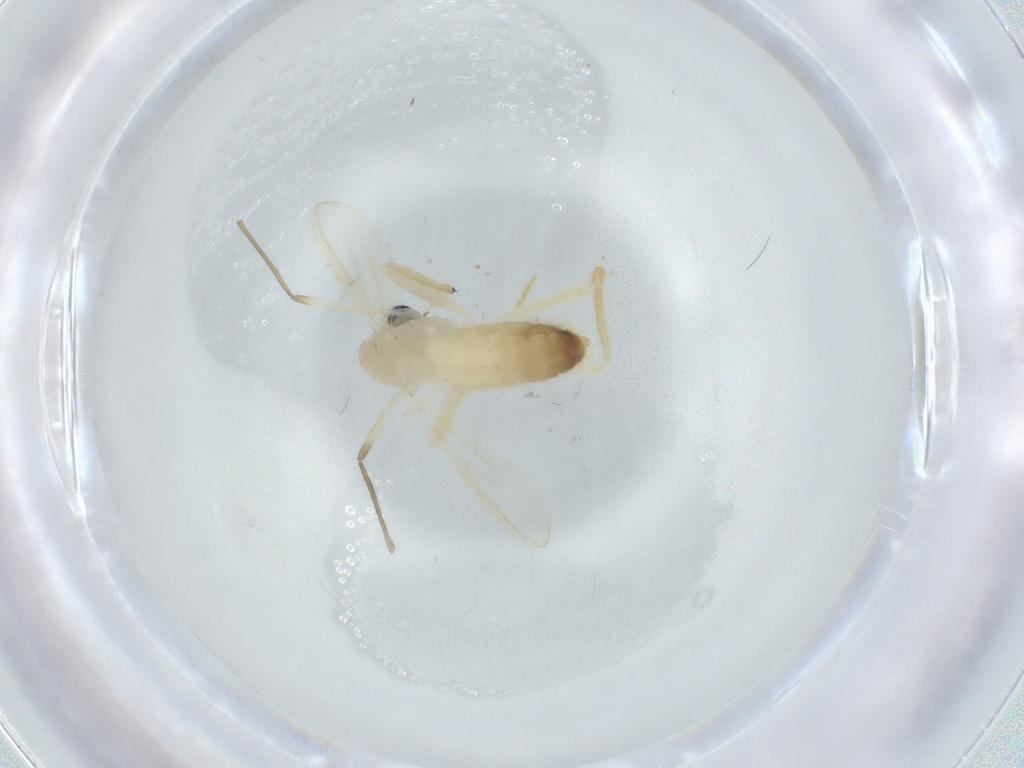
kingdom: Animalia
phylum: Arthropoda
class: Insecta
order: Diptera
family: Chironomidae
